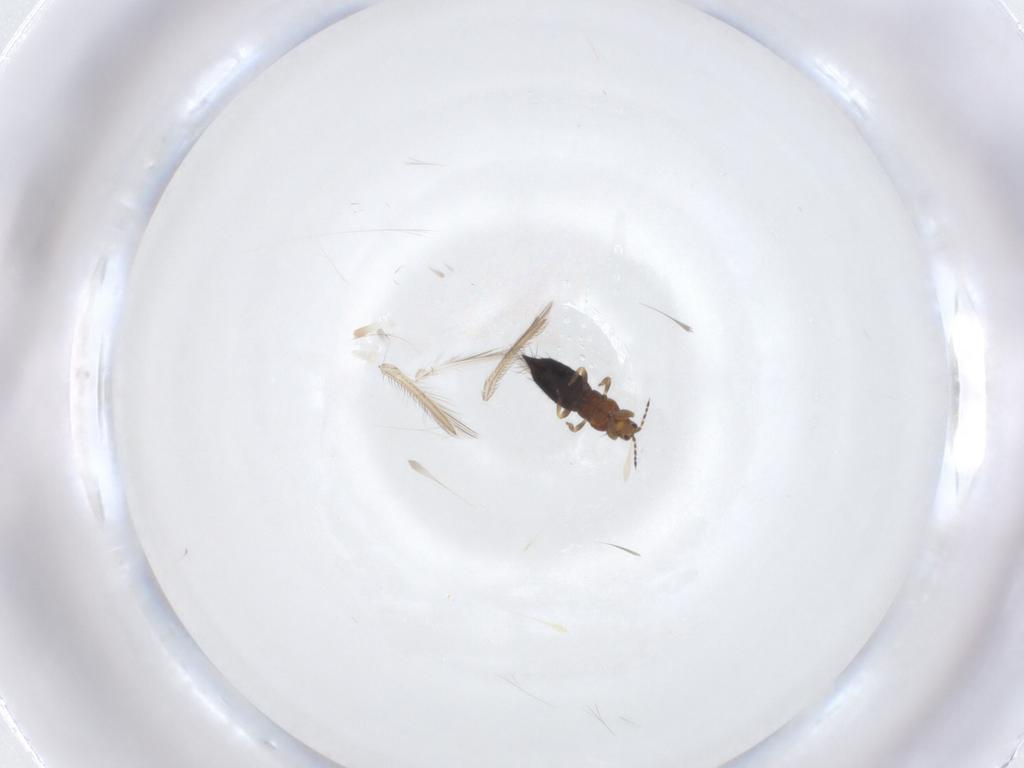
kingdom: Animalia
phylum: Arthropoda
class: Insecta
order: Thysanoptera
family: Thripidae
